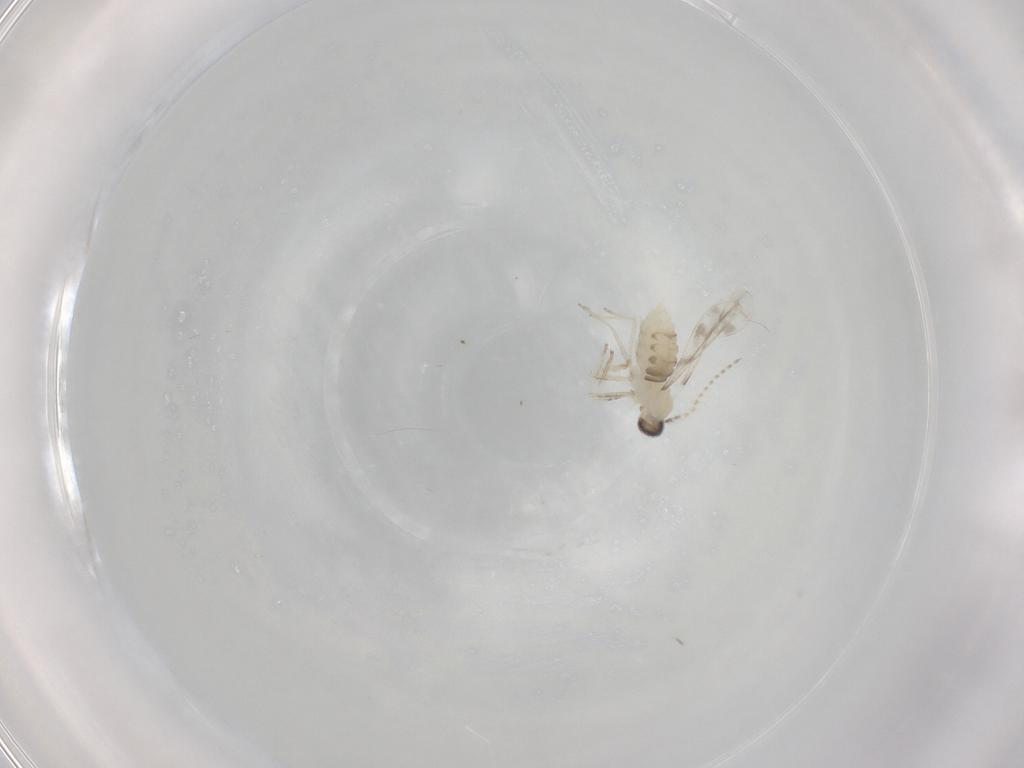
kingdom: Animalia
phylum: Arthropoda
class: Insecta
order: Diptera
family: Cecidomyiidae
